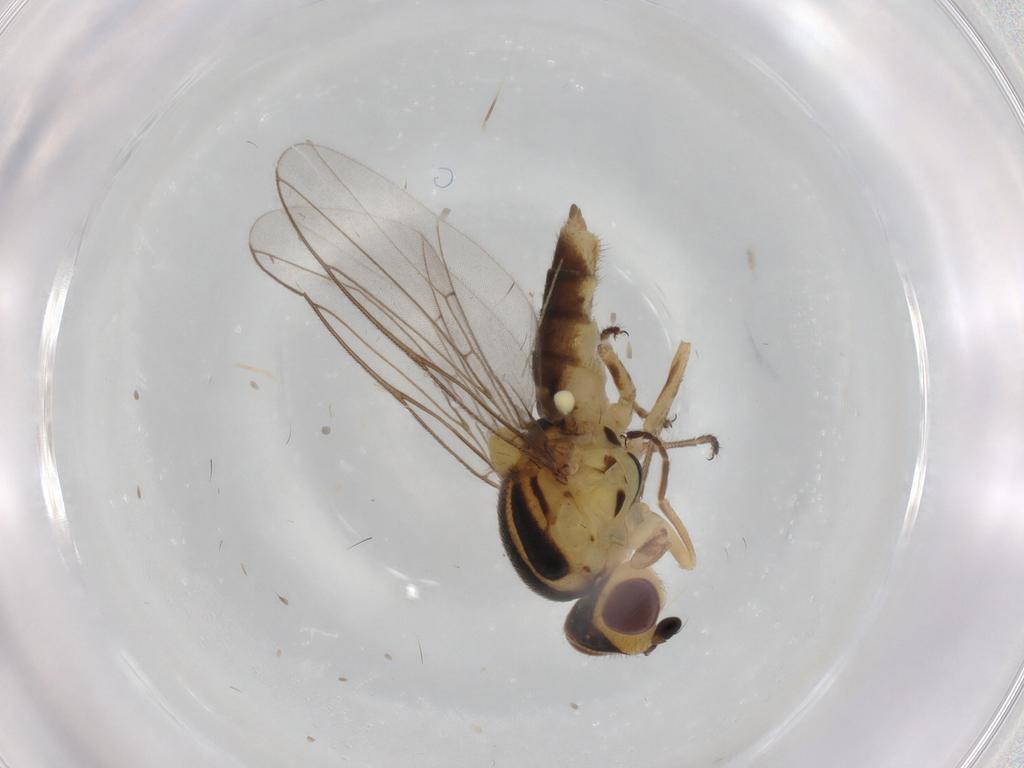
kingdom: Animalia
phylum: Arthropoda
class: Insecta
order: Diptera
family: Chloropidae
